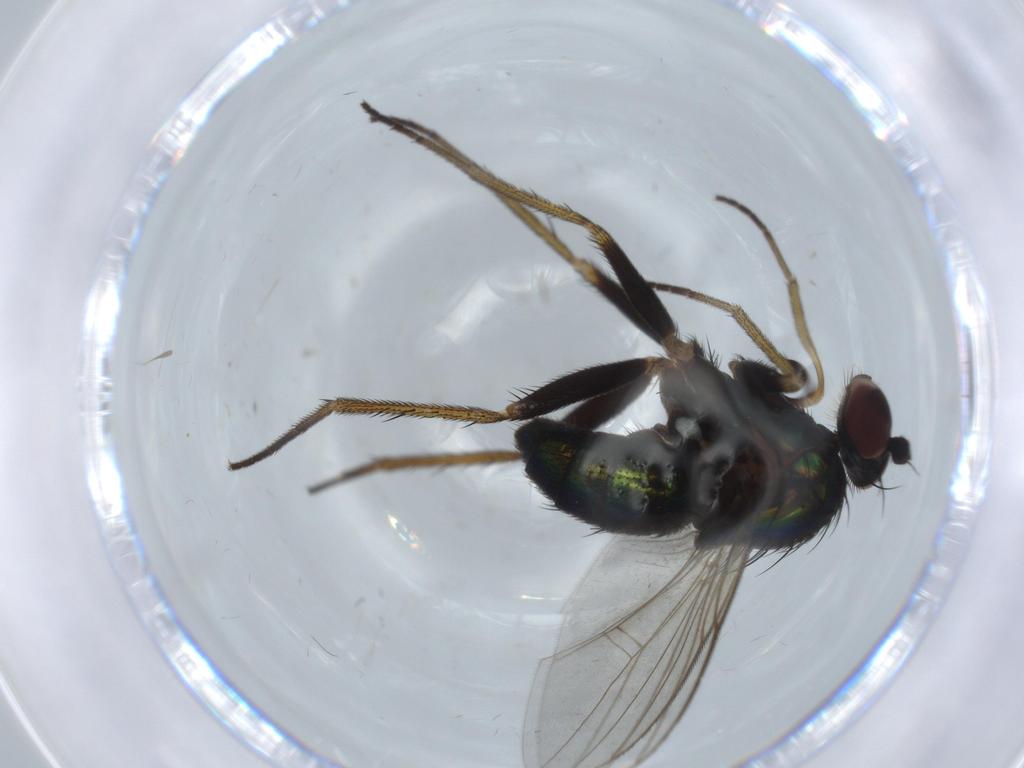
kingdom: Animalia
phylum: Arthropoda
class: Insecta
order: Diptera
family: Dolichopodidae
